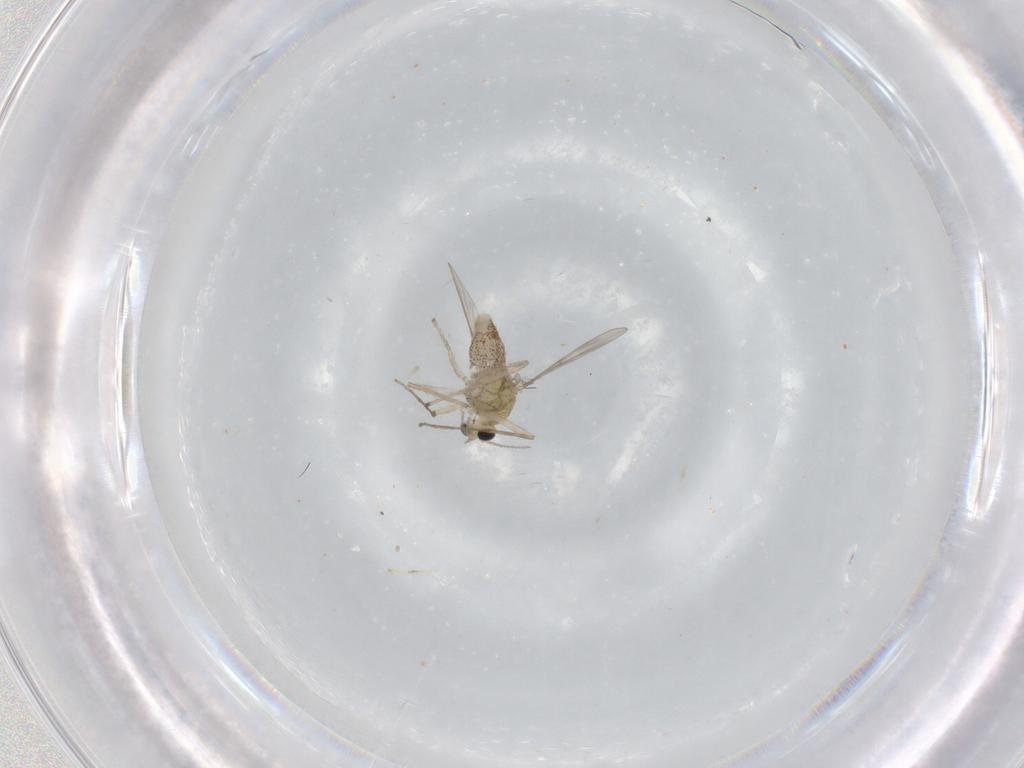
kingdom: Animalia
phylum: Arthropoda
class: Insecta
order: Diptera
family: Chironomidae
